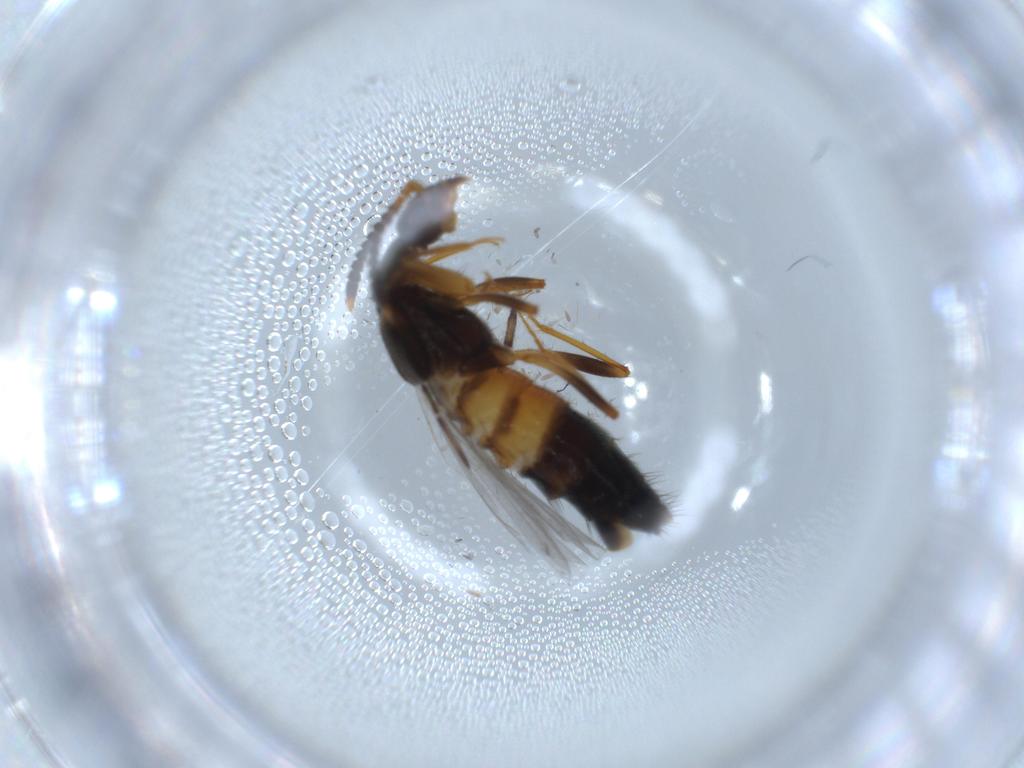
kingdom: Animalia
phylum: Arthropoda
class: Insecta
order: Coleoptera
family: Staphylinidae
